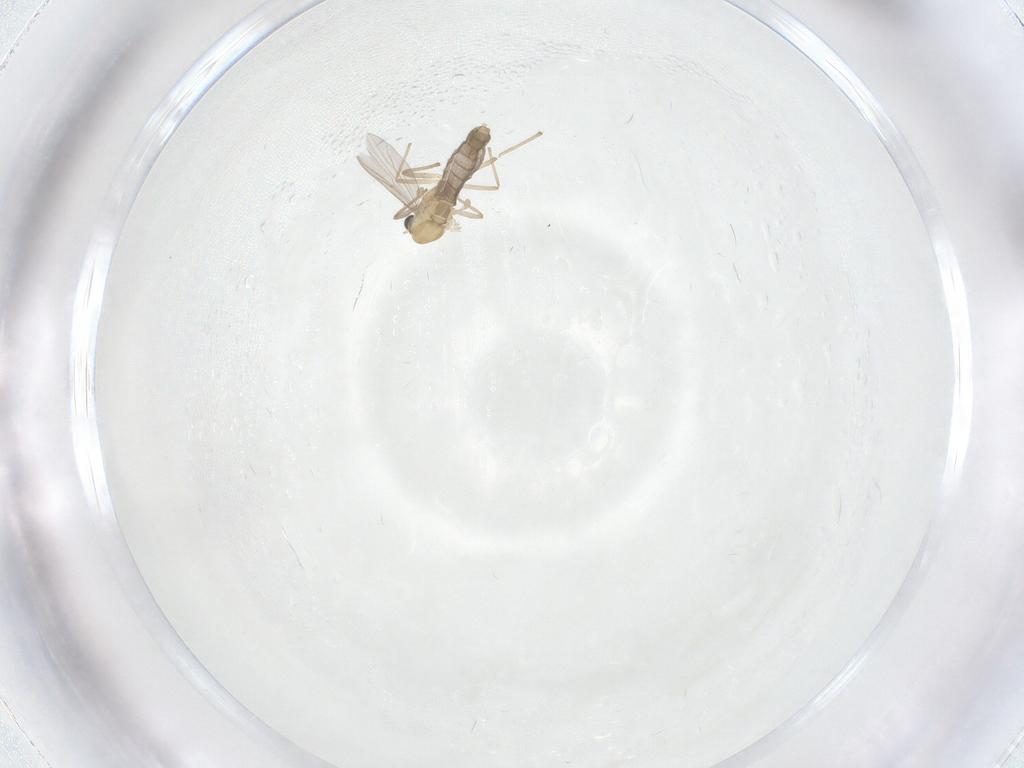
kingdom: Animalia
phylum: Arthropoda
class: Insecta
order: Diptera
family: Chironomidae
